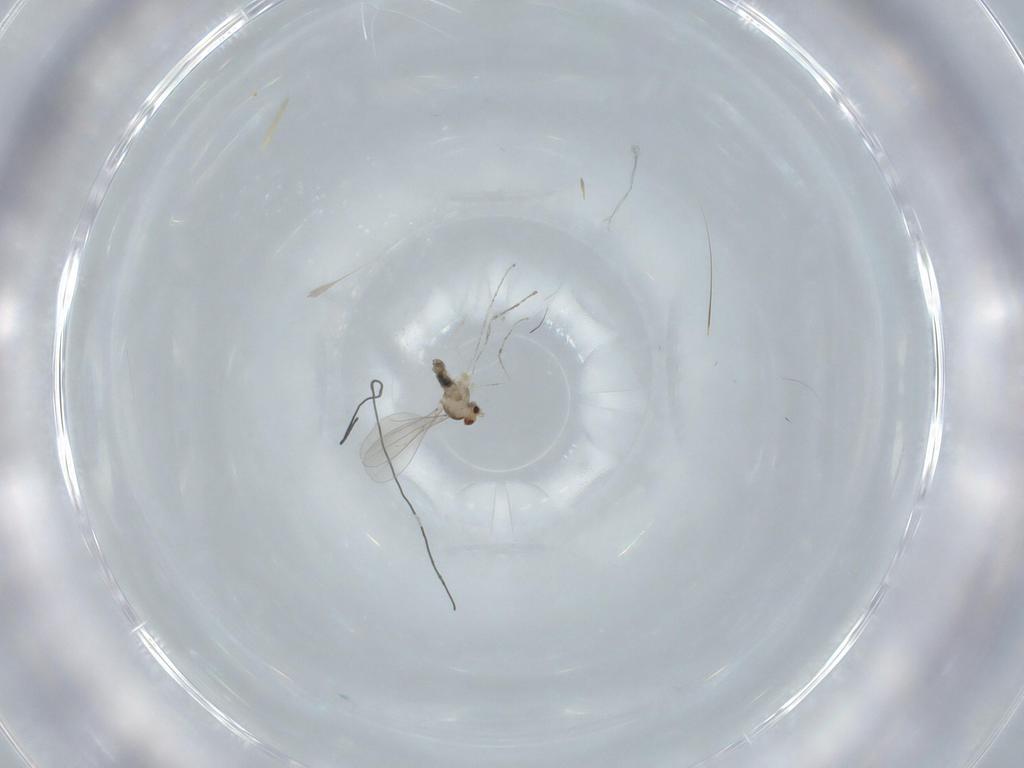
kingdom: Animalia
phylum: Arthropoda
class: Insecta
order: Diptera
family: Cecidomyiidae
